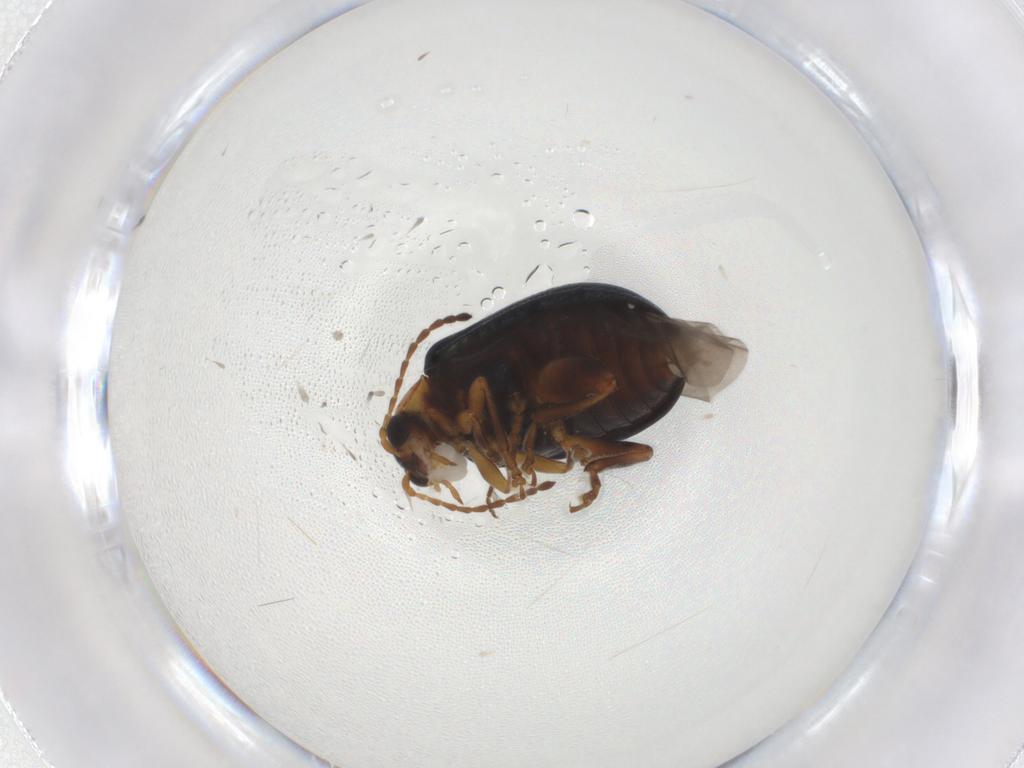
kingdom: Animalia
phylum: Arthropoda
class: Insecta
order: Coleoptera
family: Chrysomelidae
